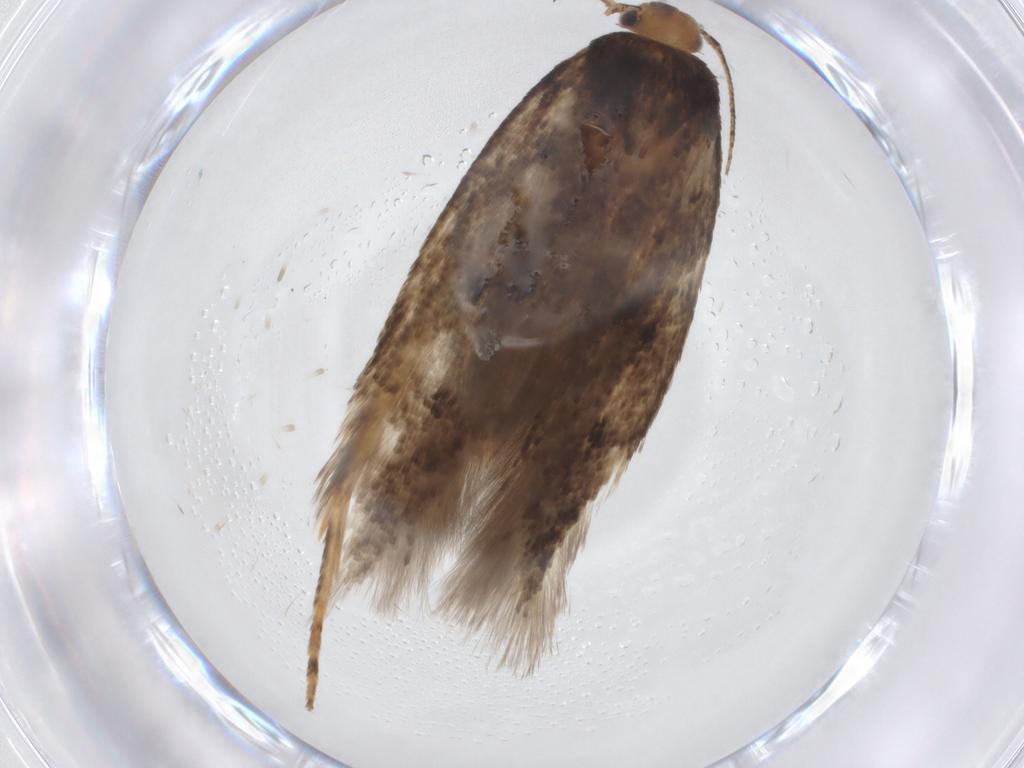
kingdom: Animalia
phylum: Arthropoda
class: Insecta
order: Lepidoptera
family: Gelechiidae
